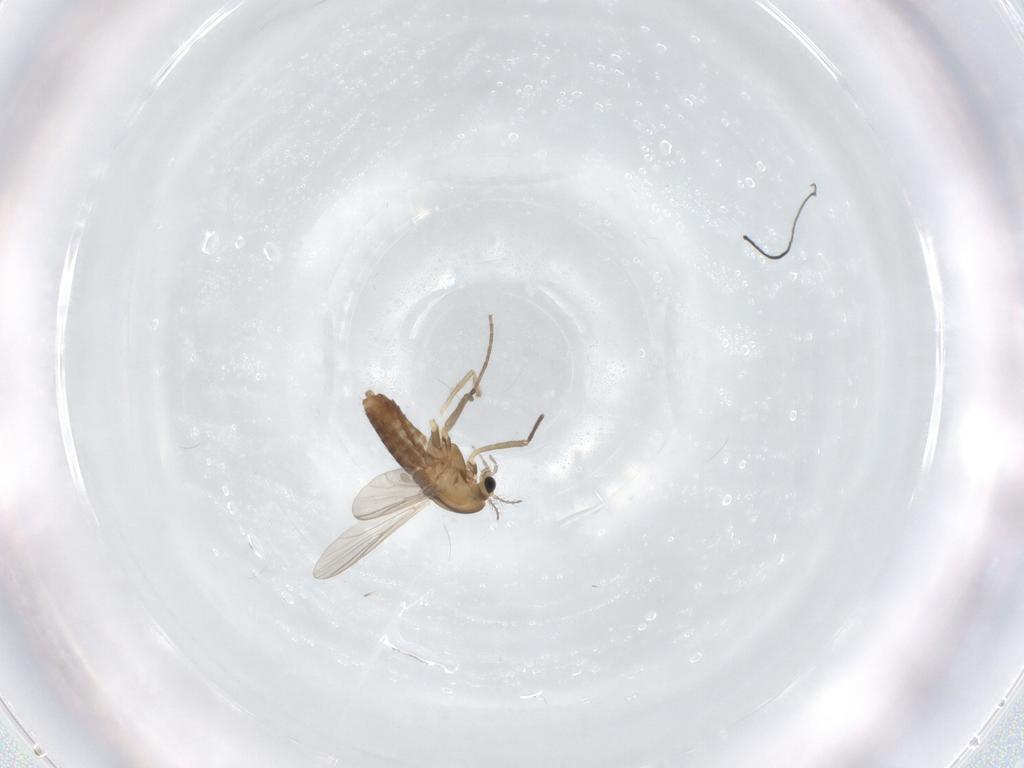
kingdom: Animalia
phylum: Arthropoda
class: Insecta
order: Diptera
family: Chironomidae
